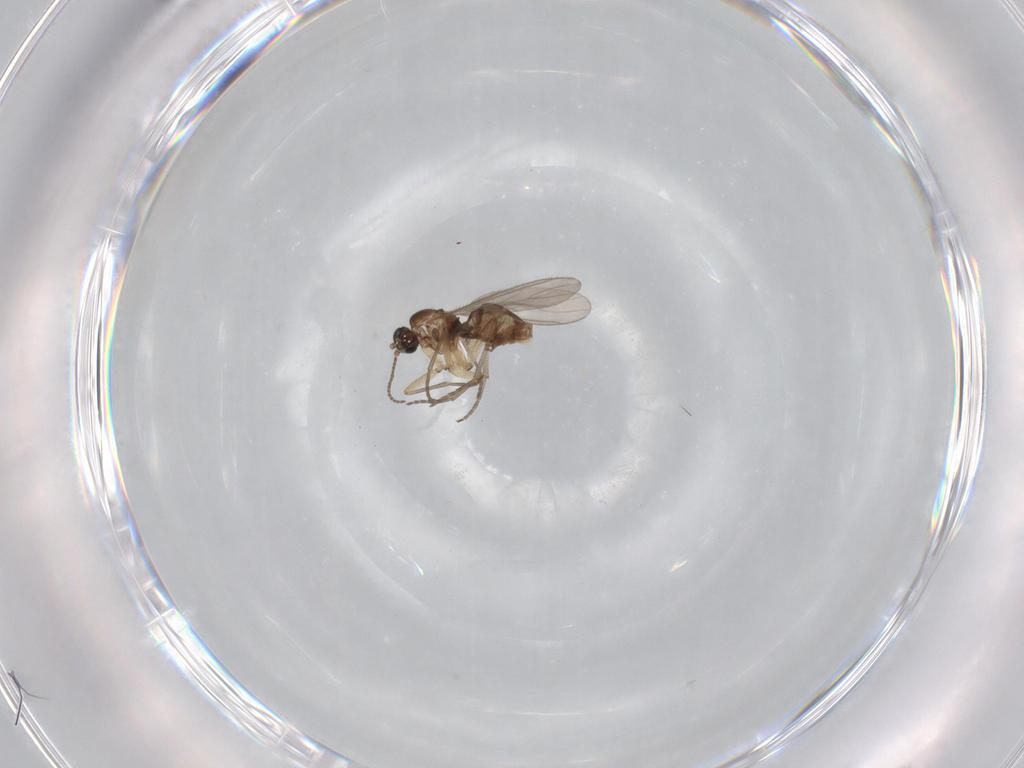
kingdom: Animalia
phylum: Arthropoda
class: Insecta
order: Diptera
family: Sciaridae
